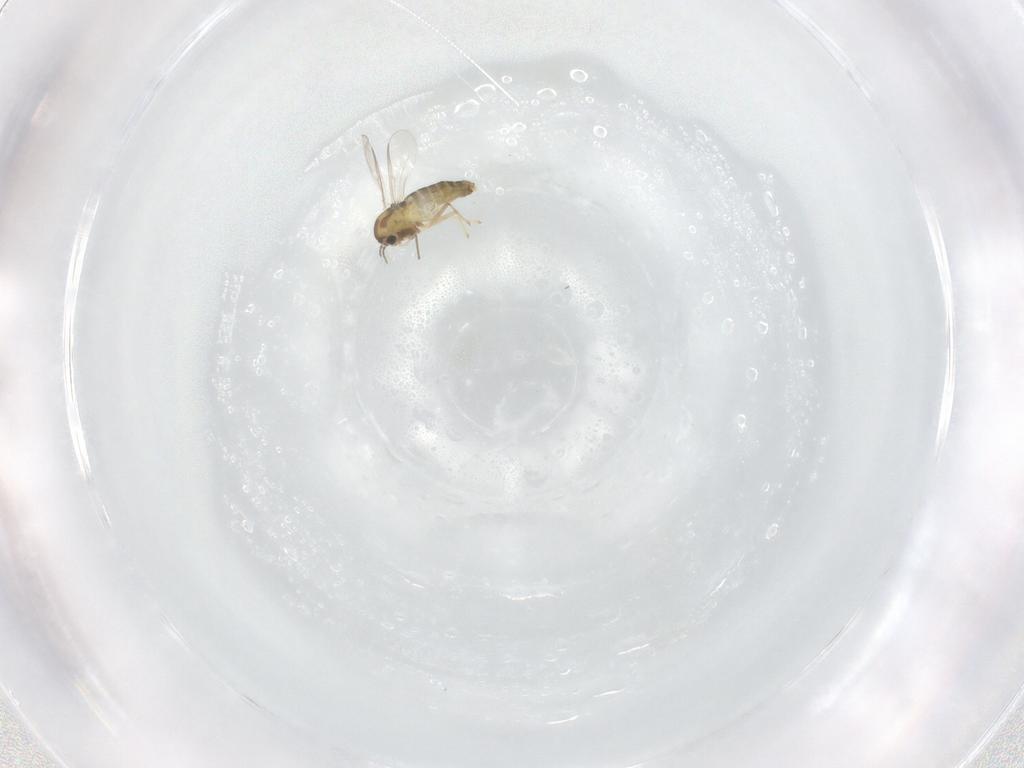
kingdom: Animalia
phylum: Arthropoda
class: Insecta
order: Diptera
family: Chironomidae
